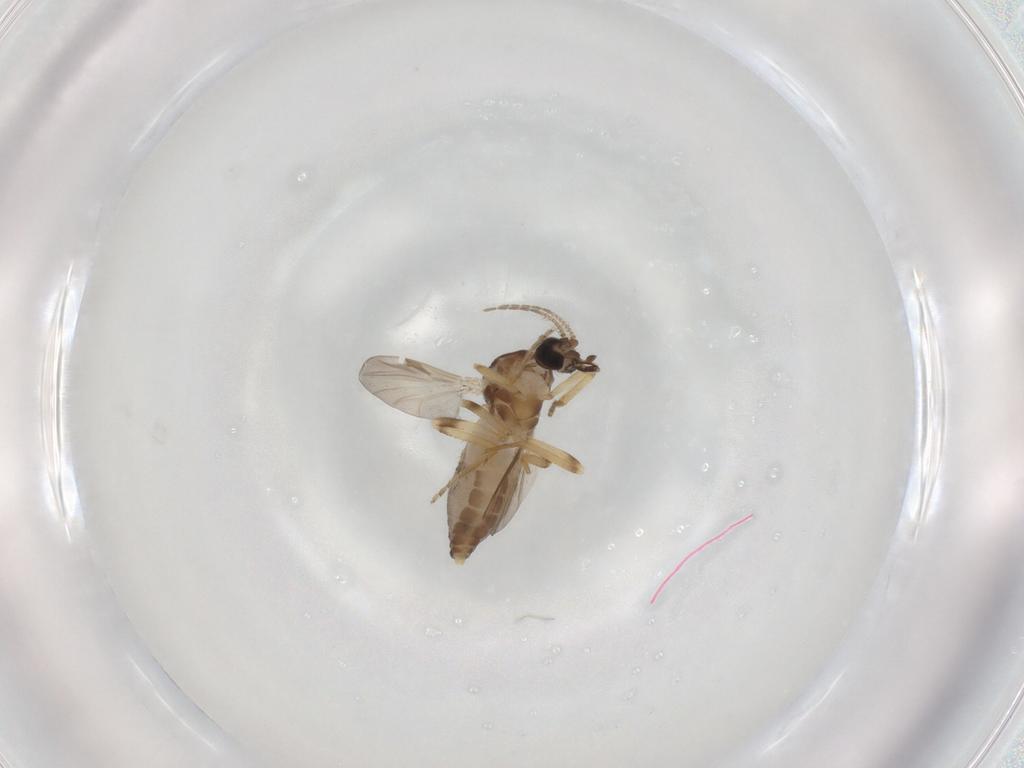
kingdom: Animalia
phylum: Arthropoda
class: Insecta
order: Diptera
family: Ceratopogonidae
